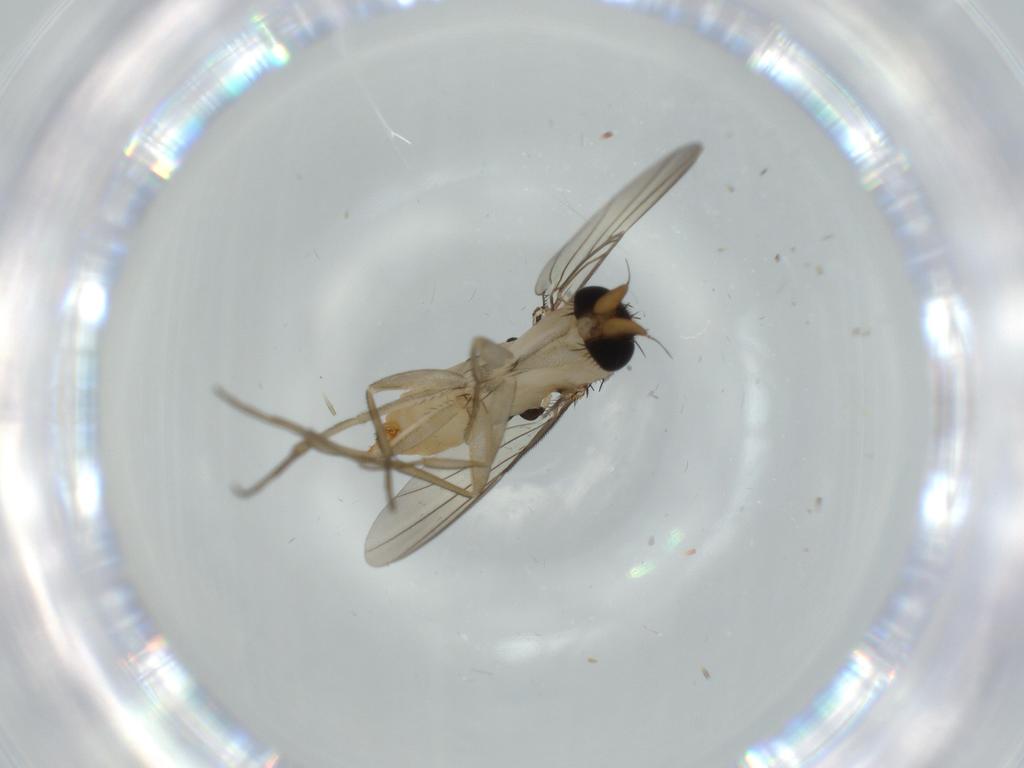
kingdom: Animalia
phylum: Arthropoda
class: Insecta
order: Diptera
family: Phoridae
